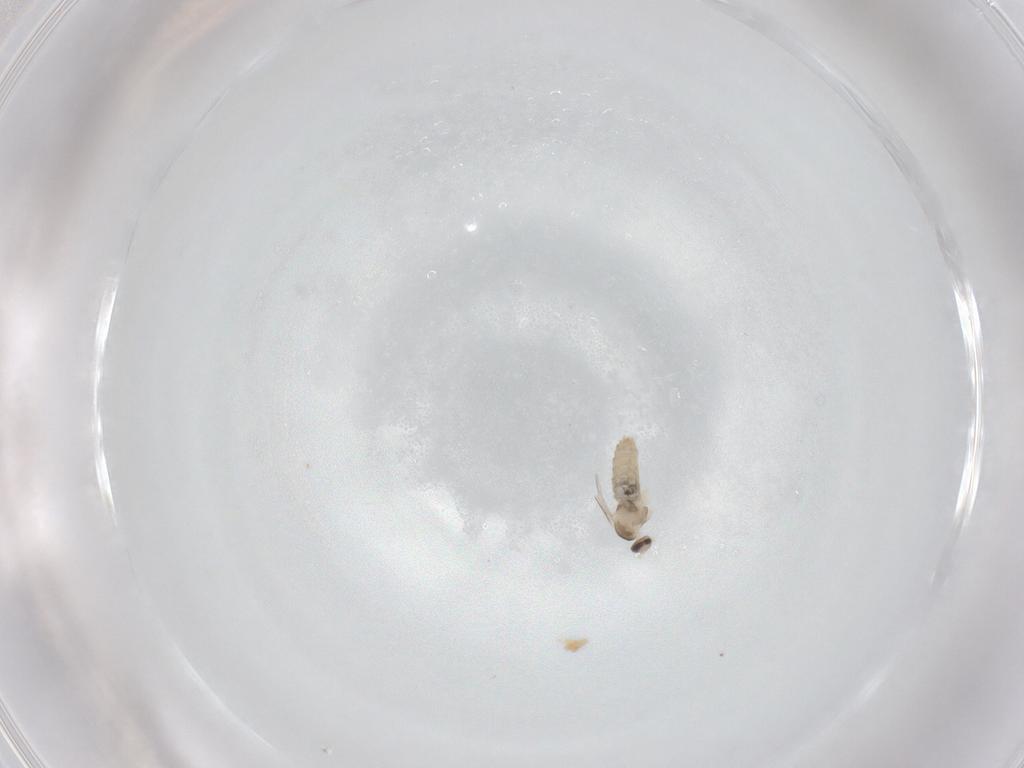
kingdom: Animalia
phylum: Arthropoda
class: Insecta
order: Diptera
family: Cecidomyiidae
